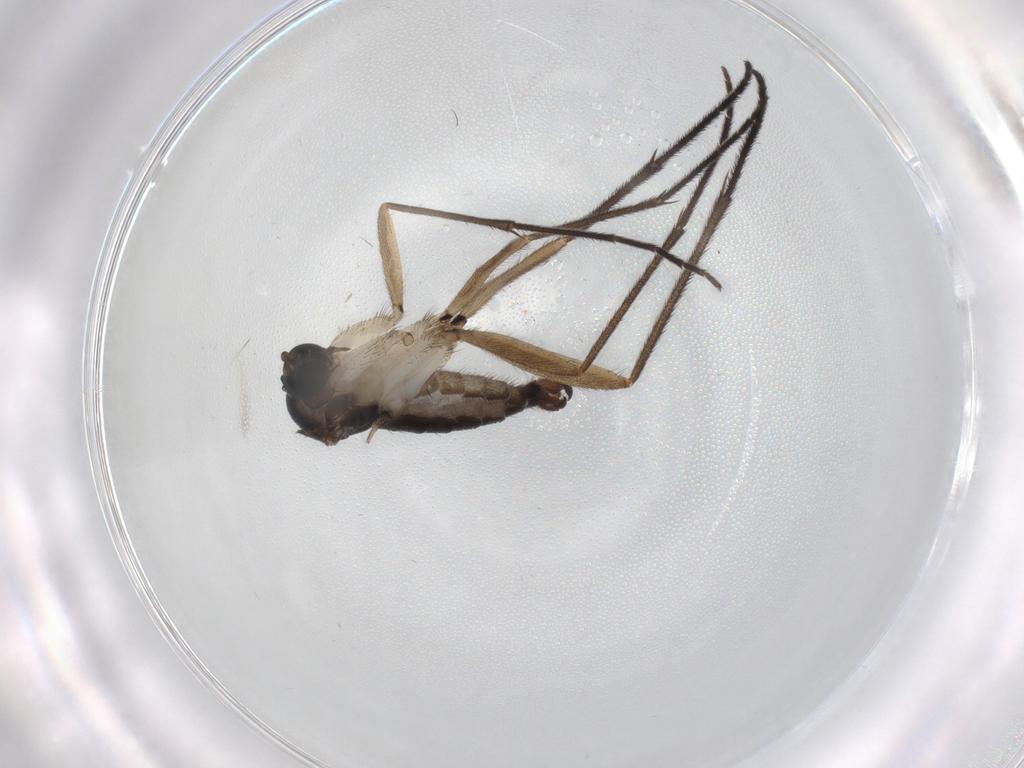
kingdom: Animalia
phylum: Arthropoda
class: Insecta
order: Diptera
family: Sciaridae
